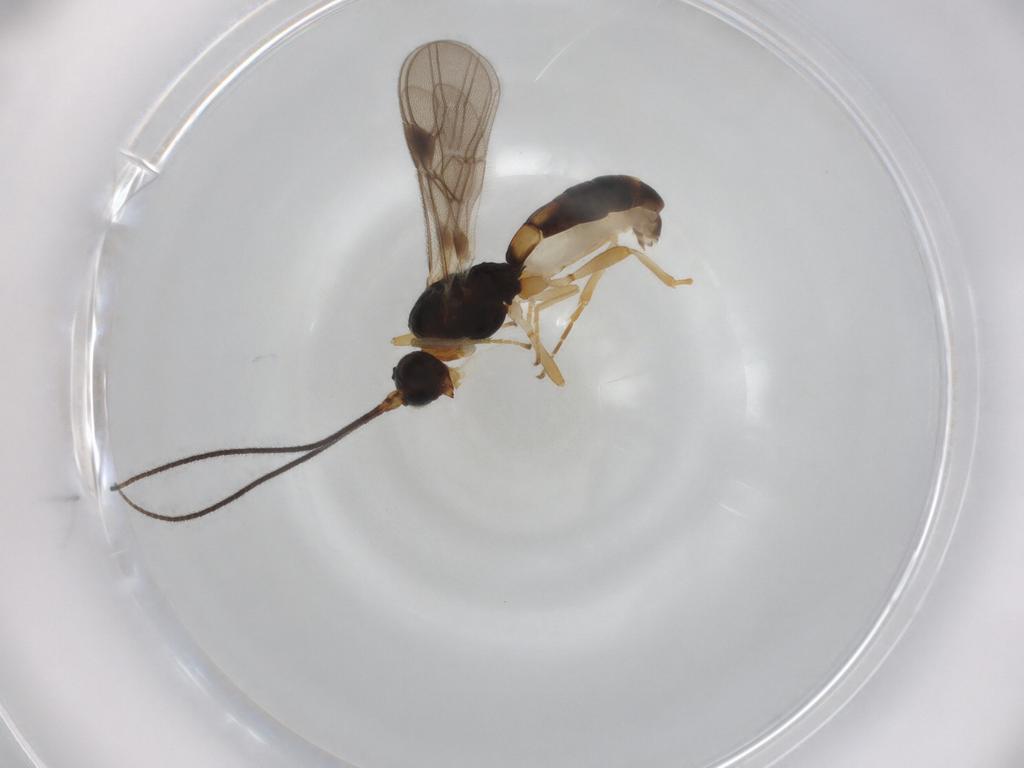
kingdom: Animalia
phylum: Arthropoda
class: Insecta
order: Hymenoptera
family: Braconidae
